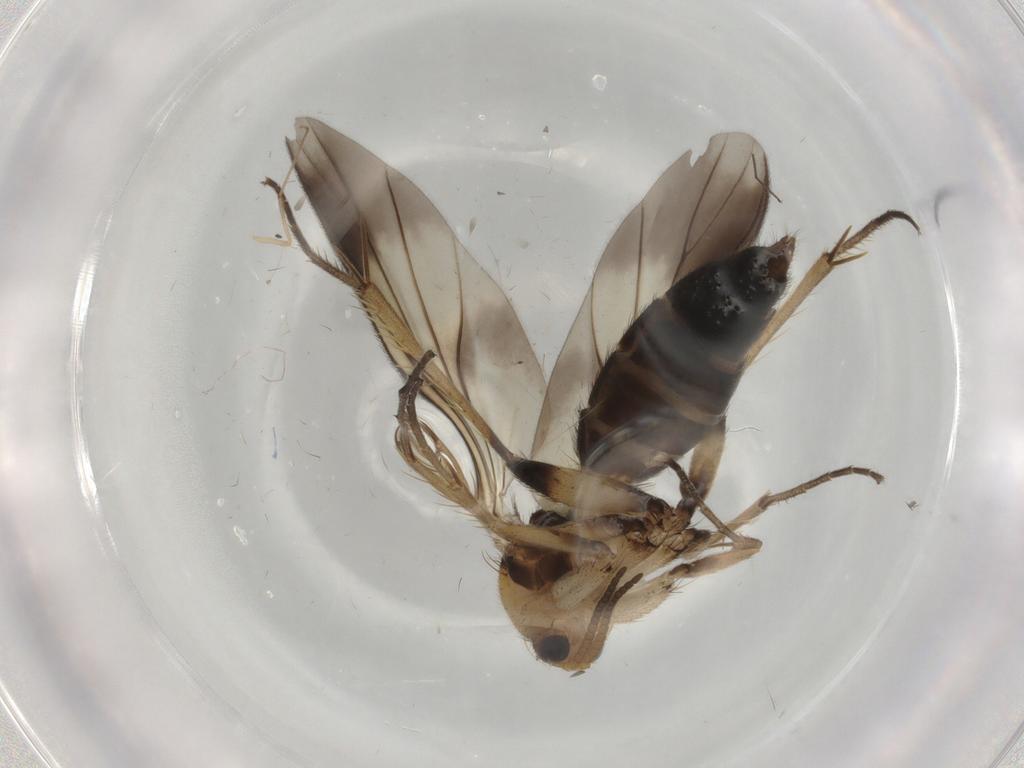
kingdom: Animalia
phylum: Arthropoda
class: Insecta
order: Diptera
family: Mycetophilidae
